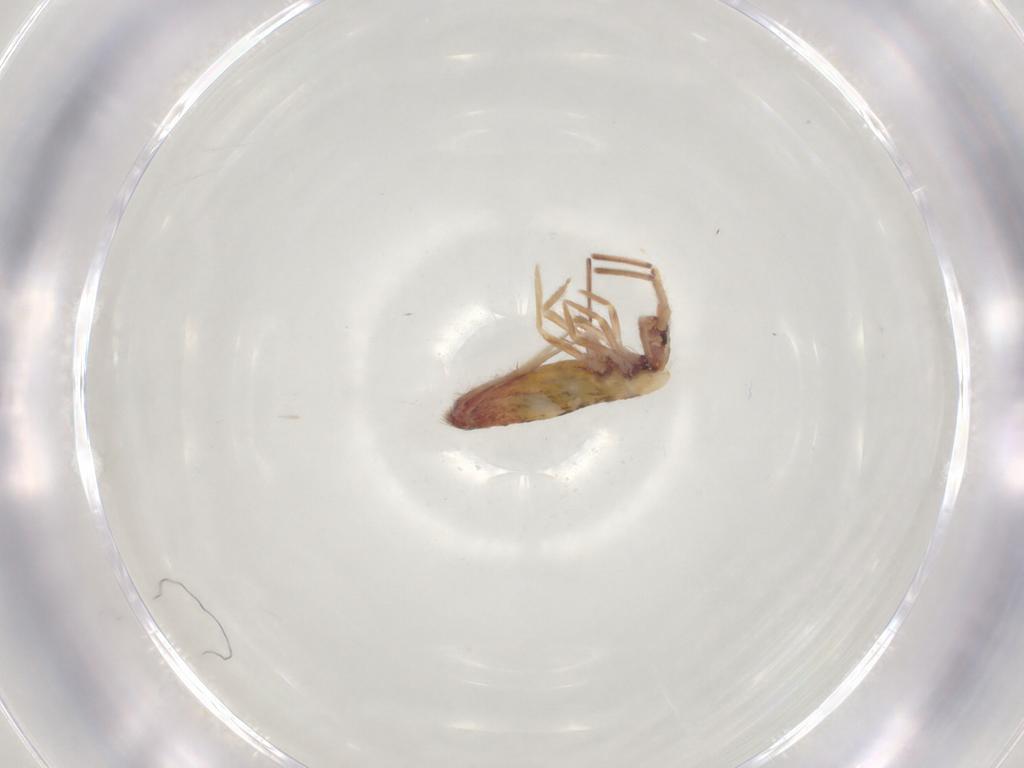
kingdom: Animalia
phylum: Arthropoda
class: Collembola
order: Entomobryomorpha
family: Entomobryidae
